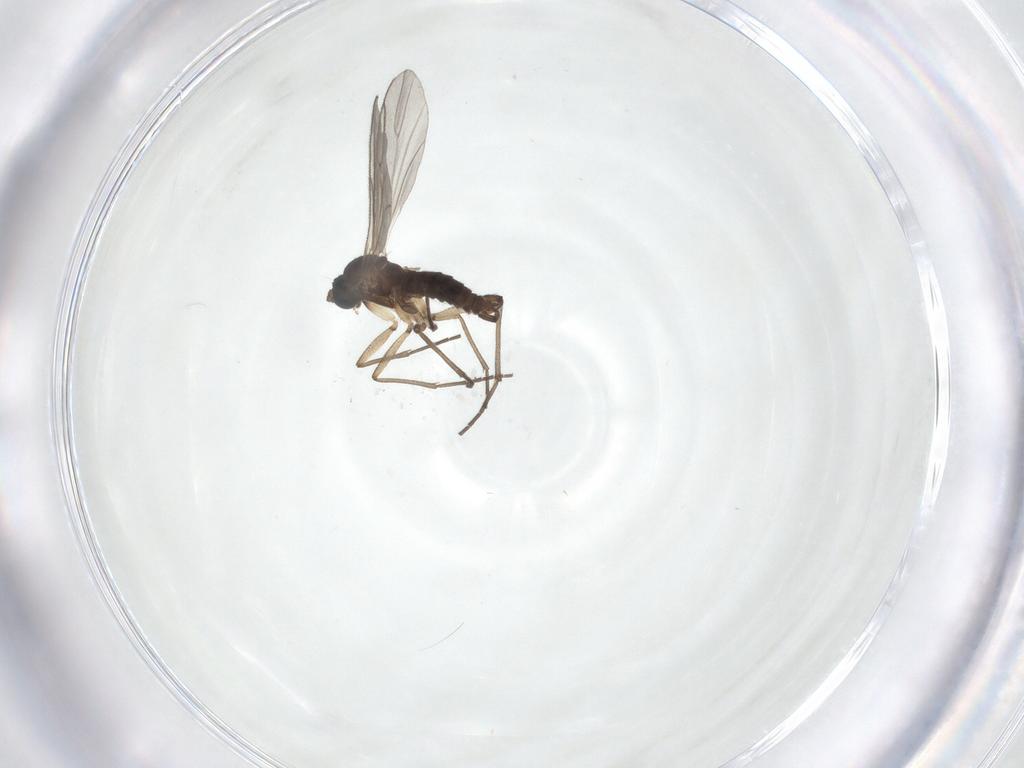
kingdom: Animalia
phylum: Arthropoda
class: Insecta
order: Diptera
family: Sciaridae
